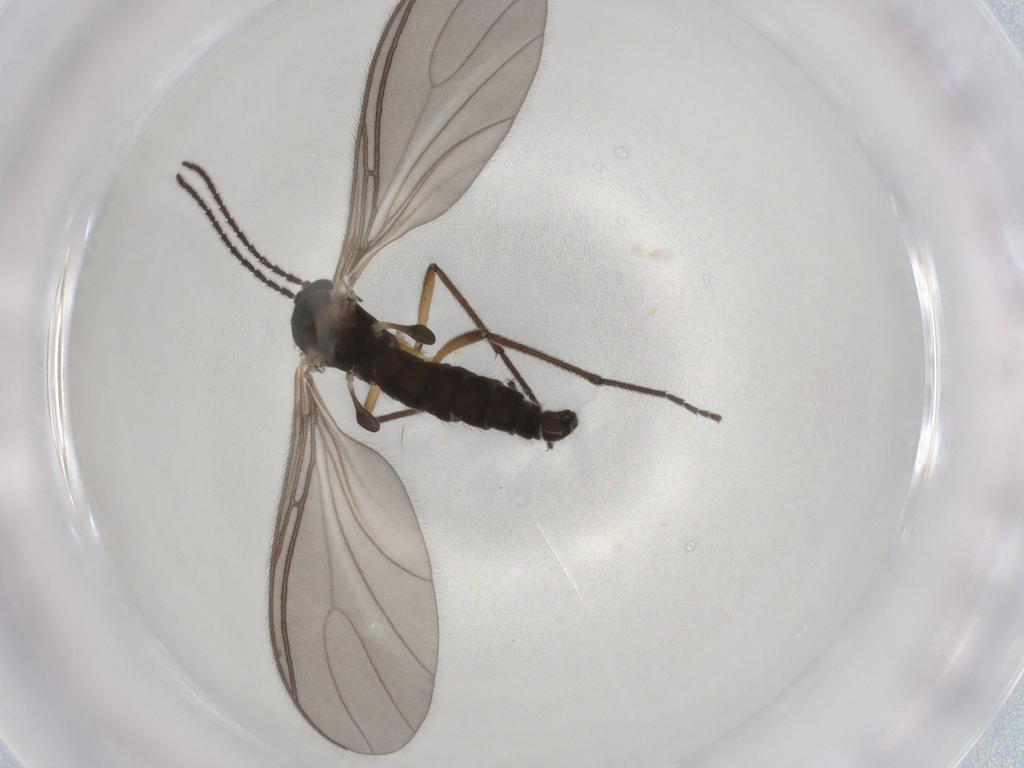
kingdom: Animalia
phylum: Arthropoda
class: Insecta
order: Diptera
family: Sciaridae
